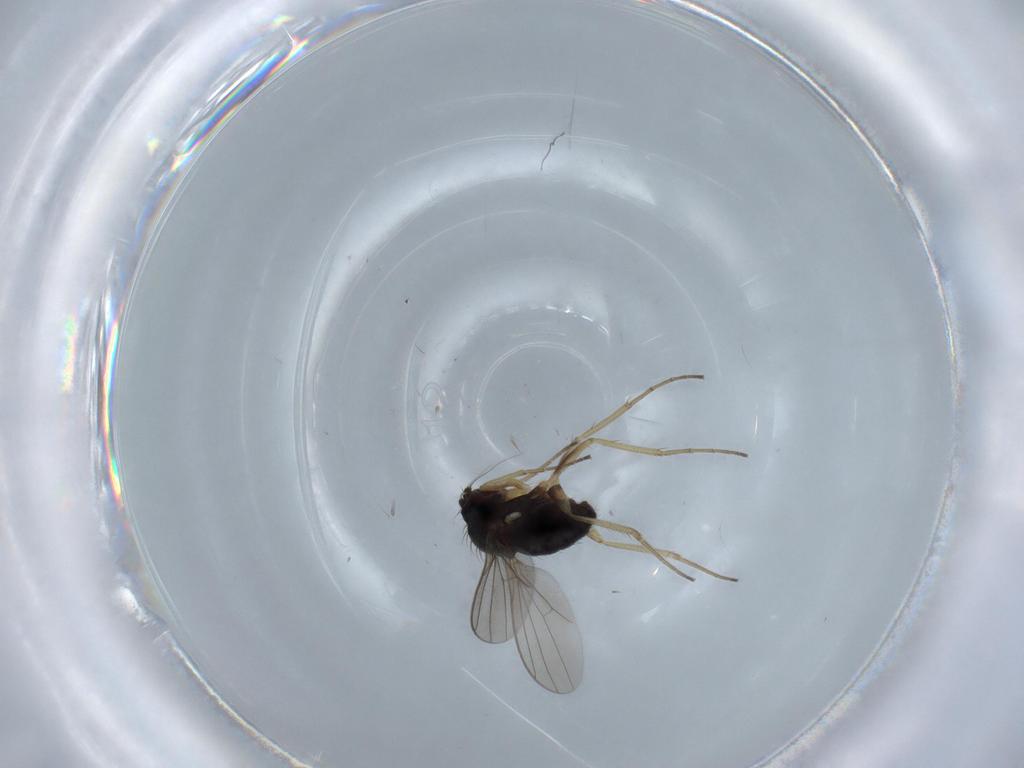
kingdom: Animalia
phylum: Arthropoda
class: Insecta
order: Diptera
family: Dolichopodidae
